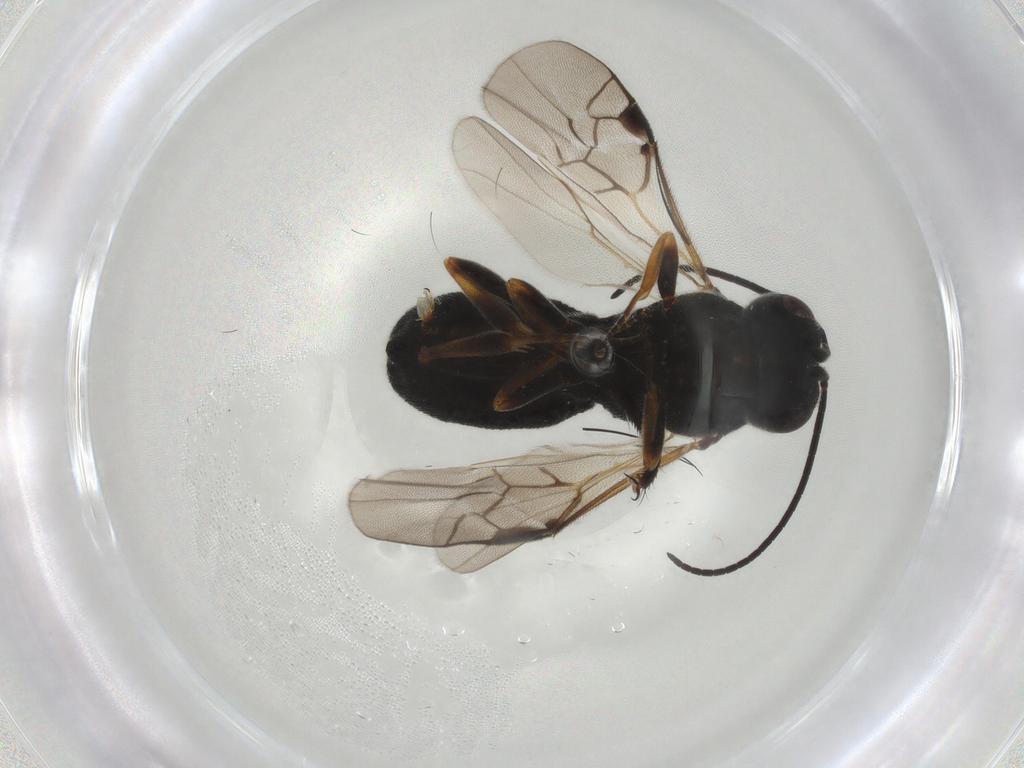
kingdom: Animalia
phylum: Arthropoda
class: Insecta
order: Hymenoptera
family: Braconidae
